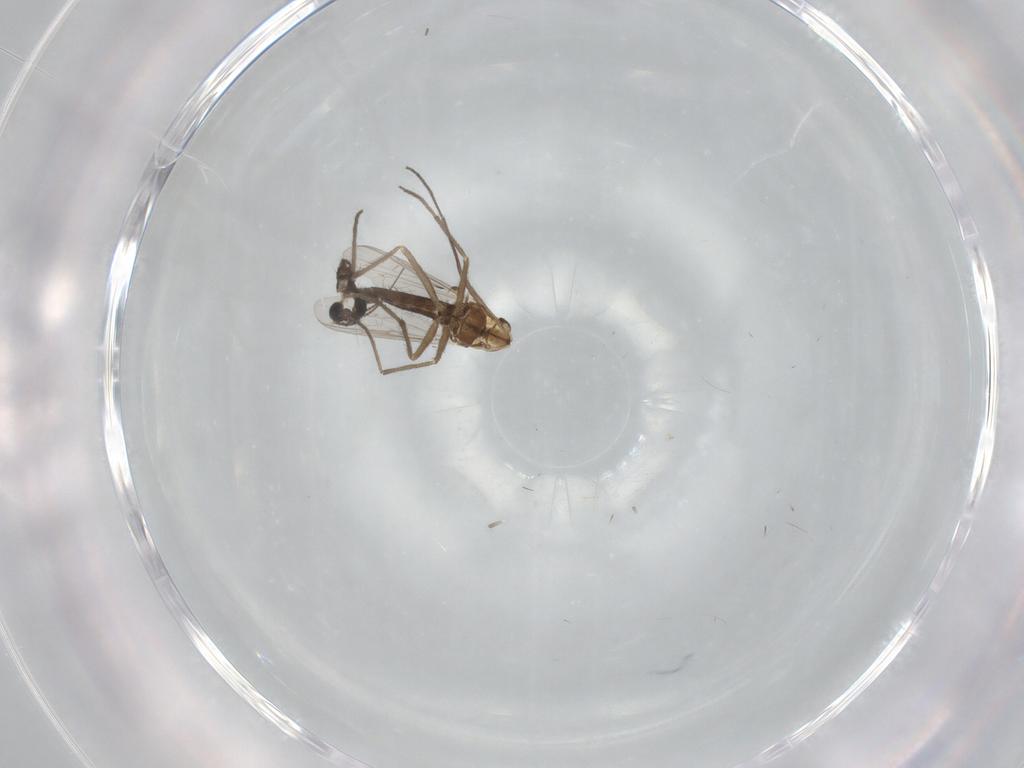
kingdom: Animalia
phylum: Arthropoda
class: Insecta
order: Diptera
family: Chironomidae
